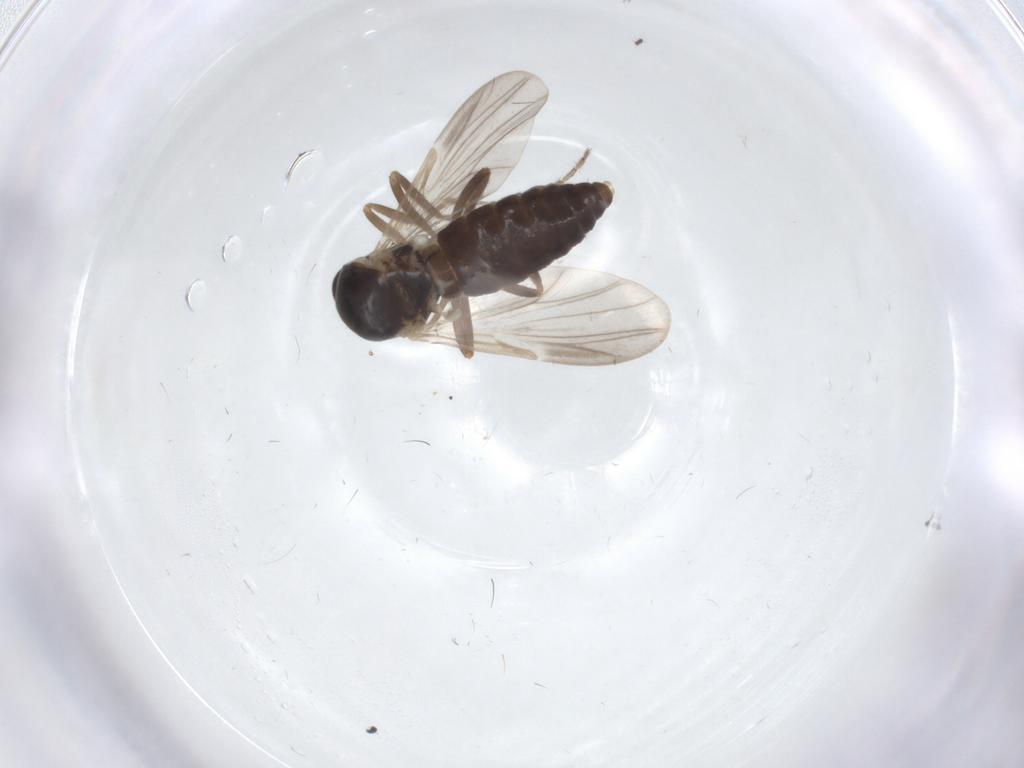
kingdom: Animalia
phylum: Arthropoda
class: Insecta
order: Diptera
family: Ceratopogonidae
